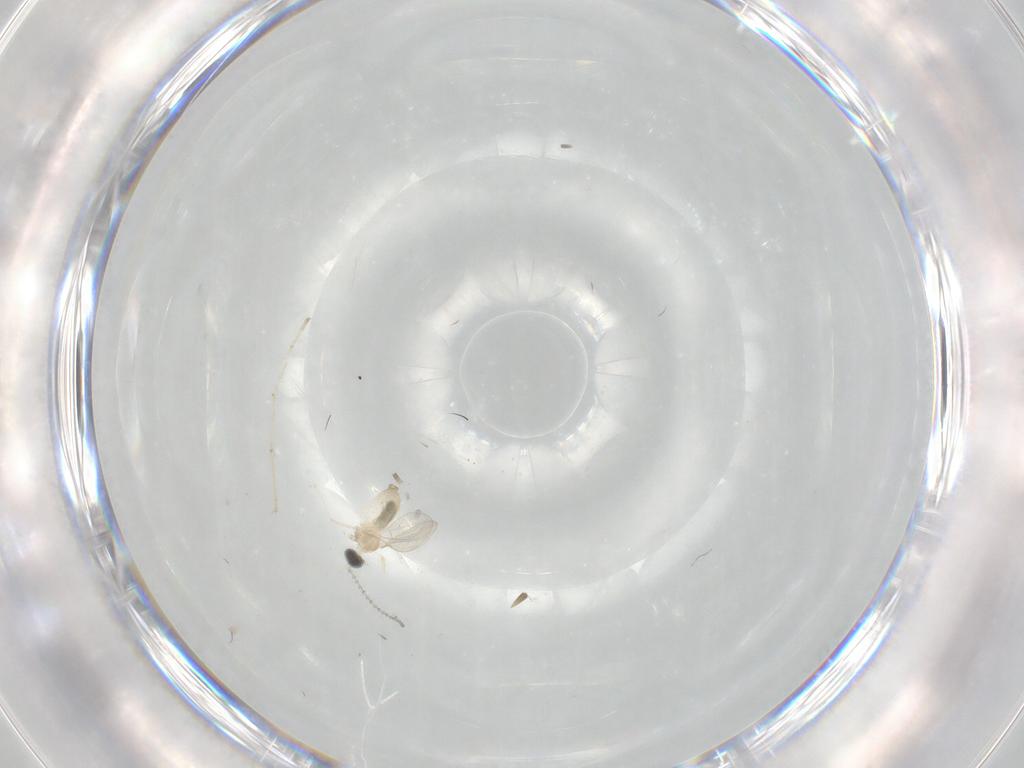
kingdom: Animalia
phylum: Arthropoda
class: Insecta
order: Diptera
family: Cecidomyiidae
